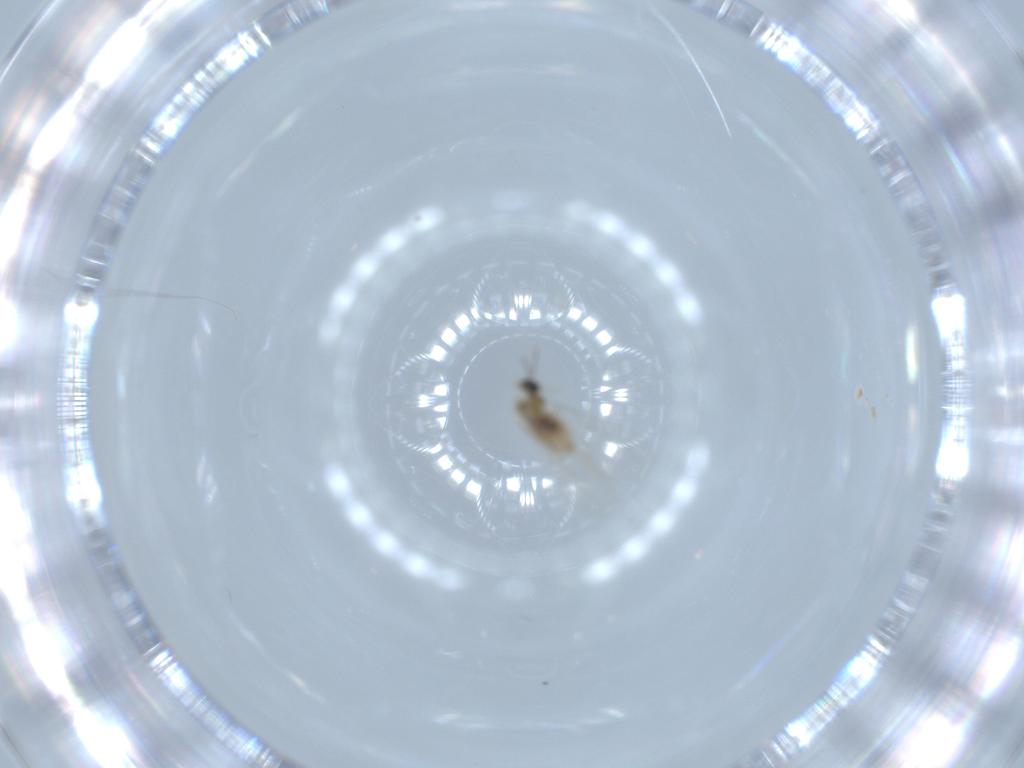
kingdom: Animalia
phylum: Arthropoda
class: Insecta
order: Diptera
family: Cecidomyiidae
